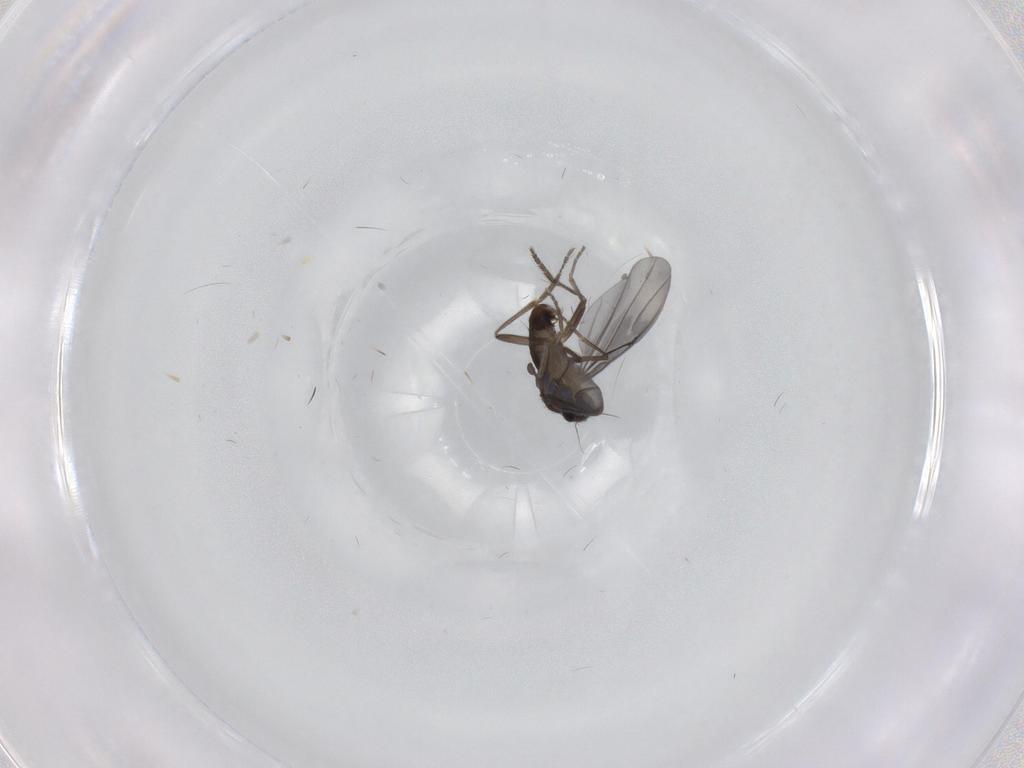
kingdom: Animalia
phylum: Arthropoda
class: Insecta
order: Diptera
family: Phoridae
